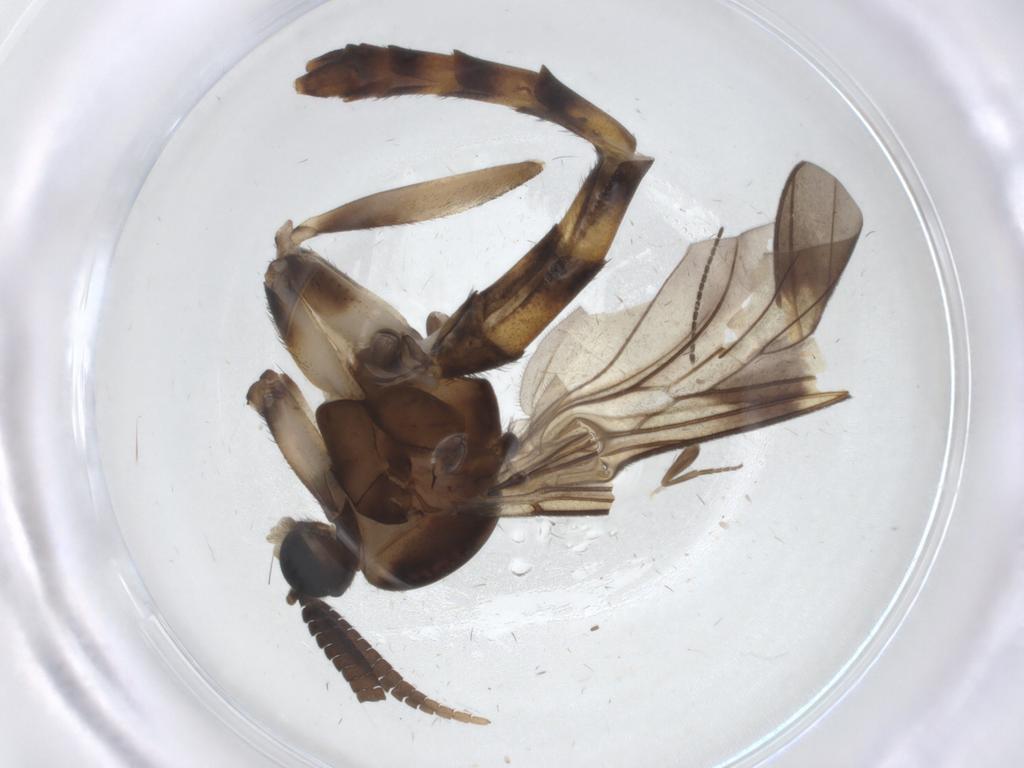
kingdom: Animalia
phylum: Arthropoda
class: Insecta
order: Diptera
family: Keroplatidae
